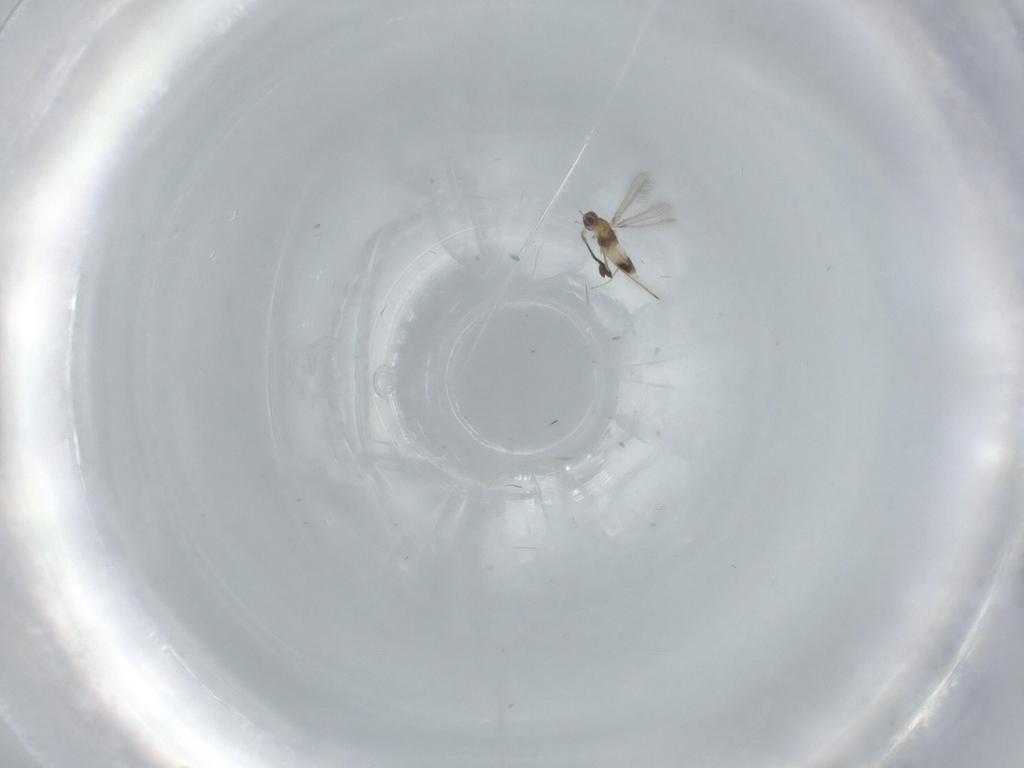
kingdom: Animalia
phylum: Arthropoda
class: Insecta
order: Hymenoptera
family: Mymaridae
